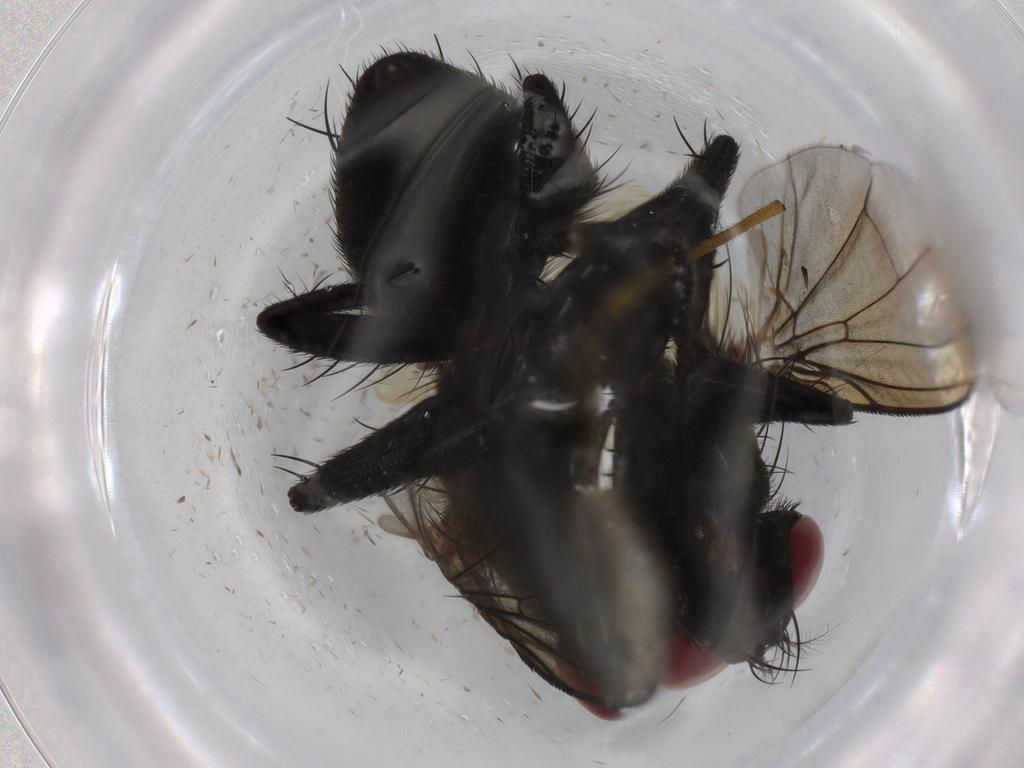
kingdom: Animalia
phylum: Arthropoda
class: Insecta
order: Diptera
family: Sarcophagidae
